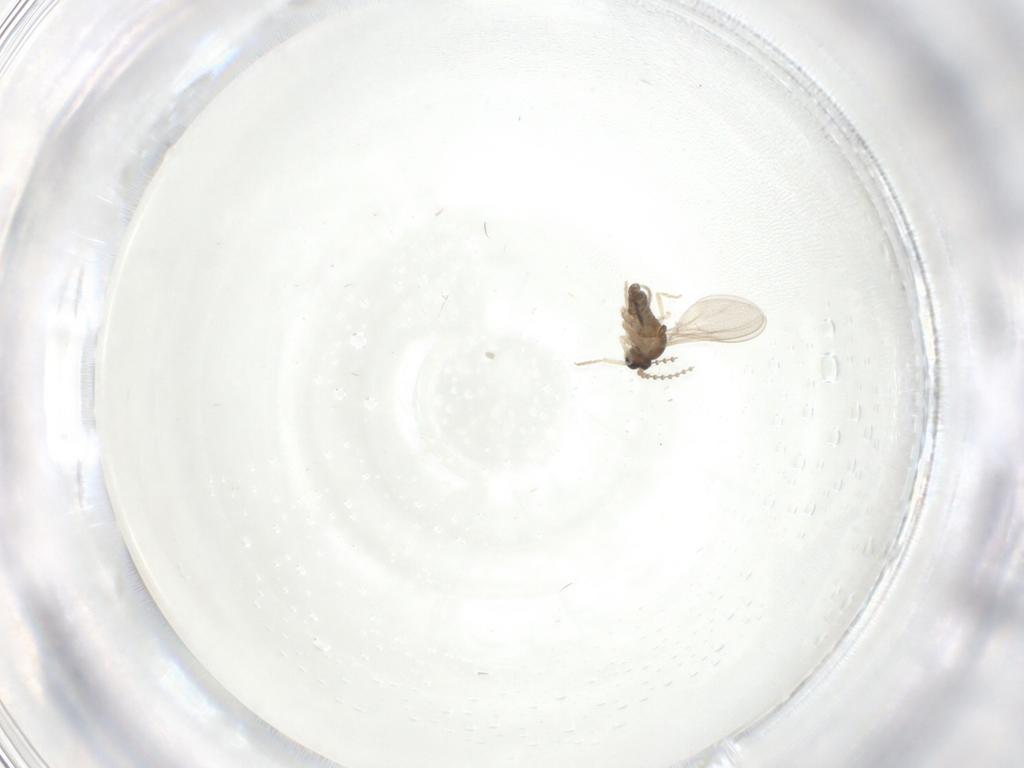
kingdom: Animalia
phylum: Arthropoda
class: Insecta
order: Diptera
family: Cecidomyiidae
